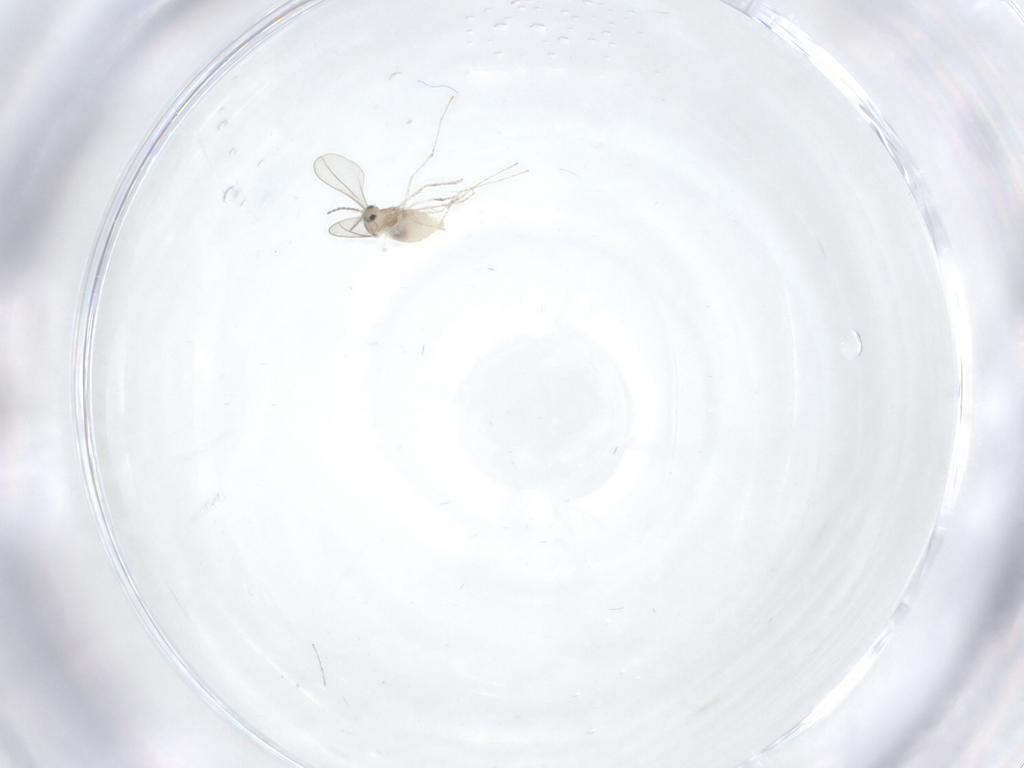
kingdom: Animalia
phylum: Arthropoda
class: Insecta
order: Diptera
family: Cecidomyiidae
